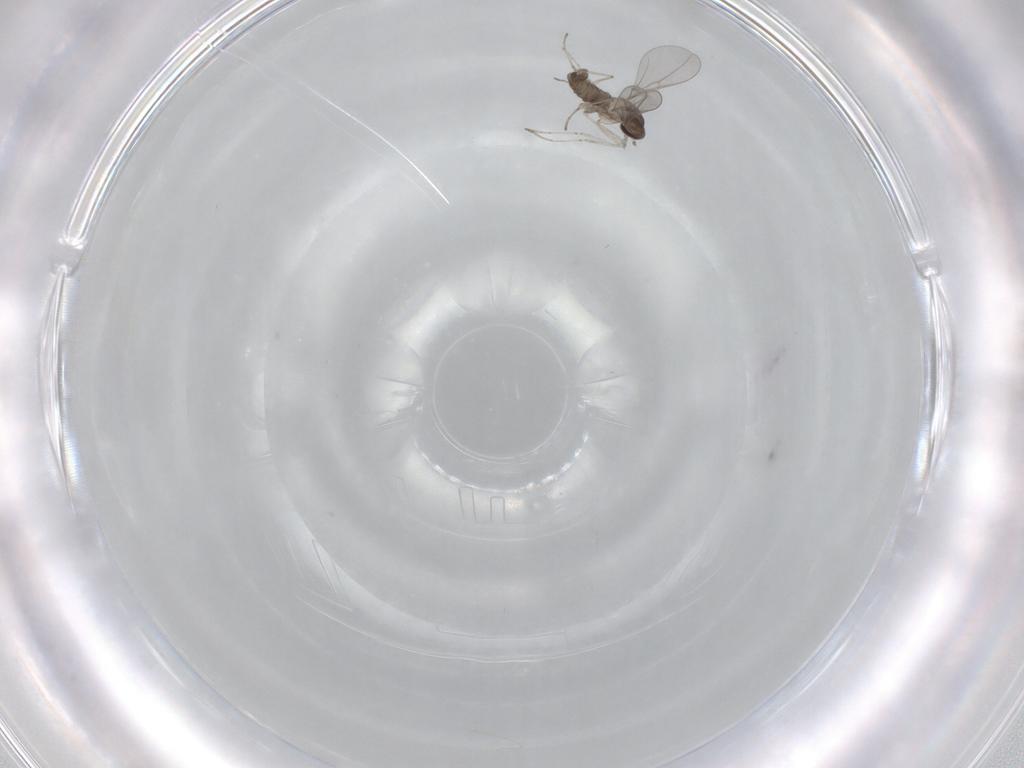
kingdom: Animalia
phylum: Arthropoda
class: Insecta
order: Diptera
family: Cecidomyiidae
